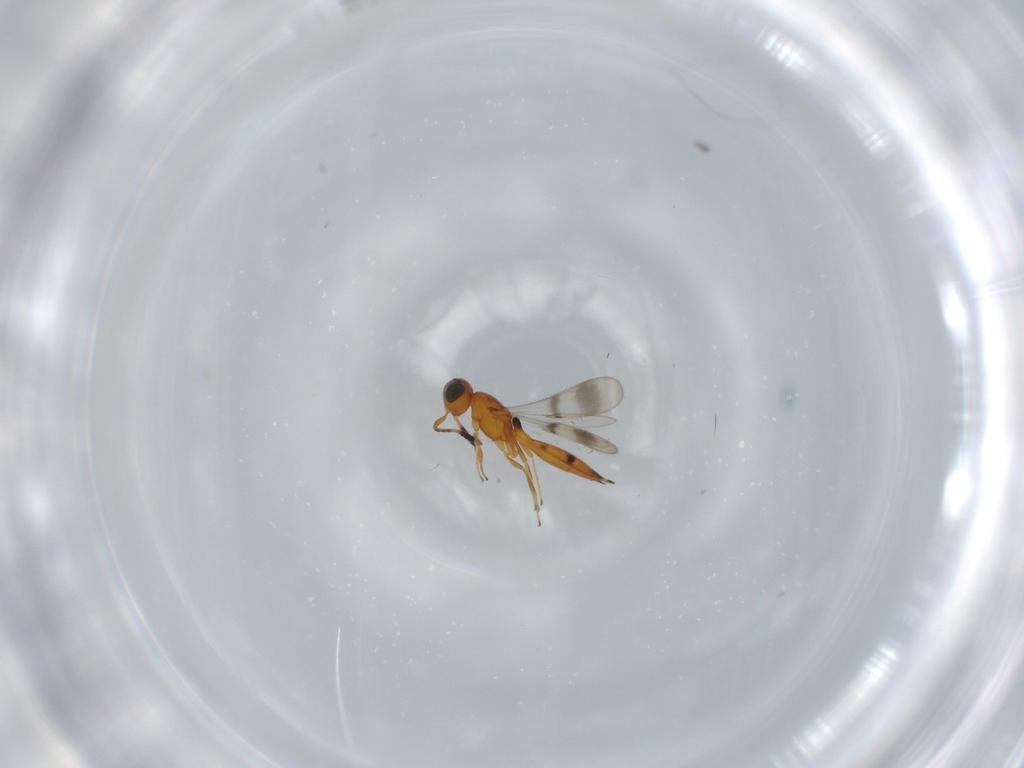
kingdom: Animalia
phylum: Arthropoda
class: Insecta
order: Hymenoptera
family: Scelionidae
